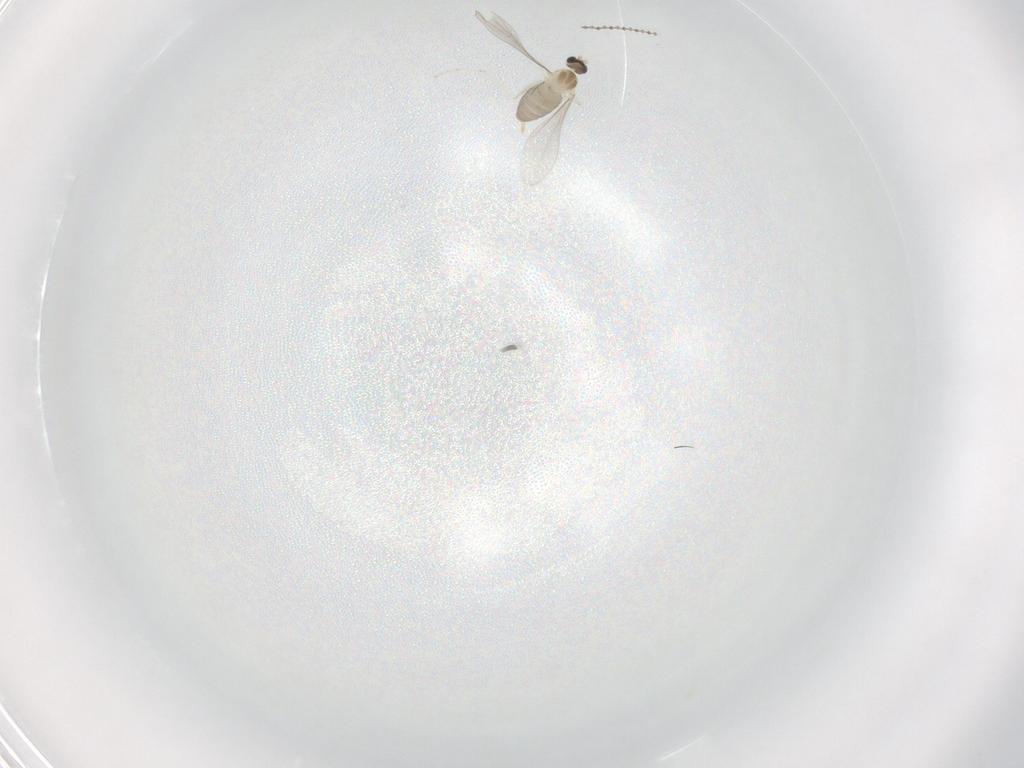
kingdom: Animalia
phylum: Arthropoda
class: Insecta
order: Diptera
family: Cecidomyiidae
